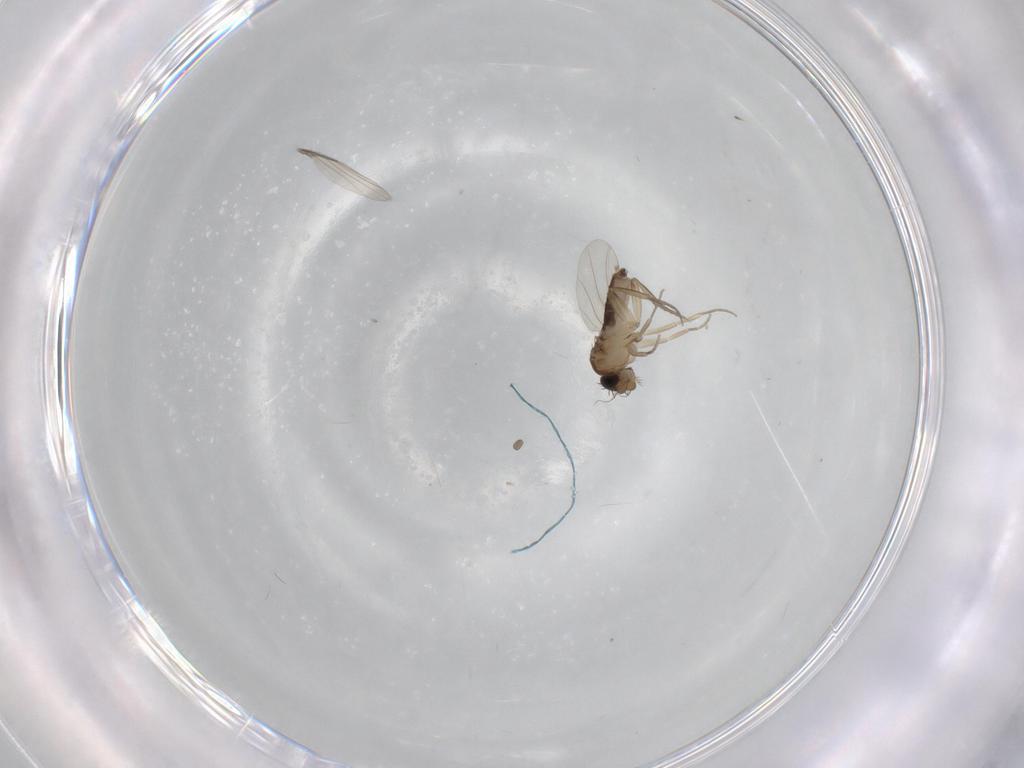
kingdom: Animalia
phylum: Arthropoda
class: Insecta
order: Diptera
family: Phoridae
